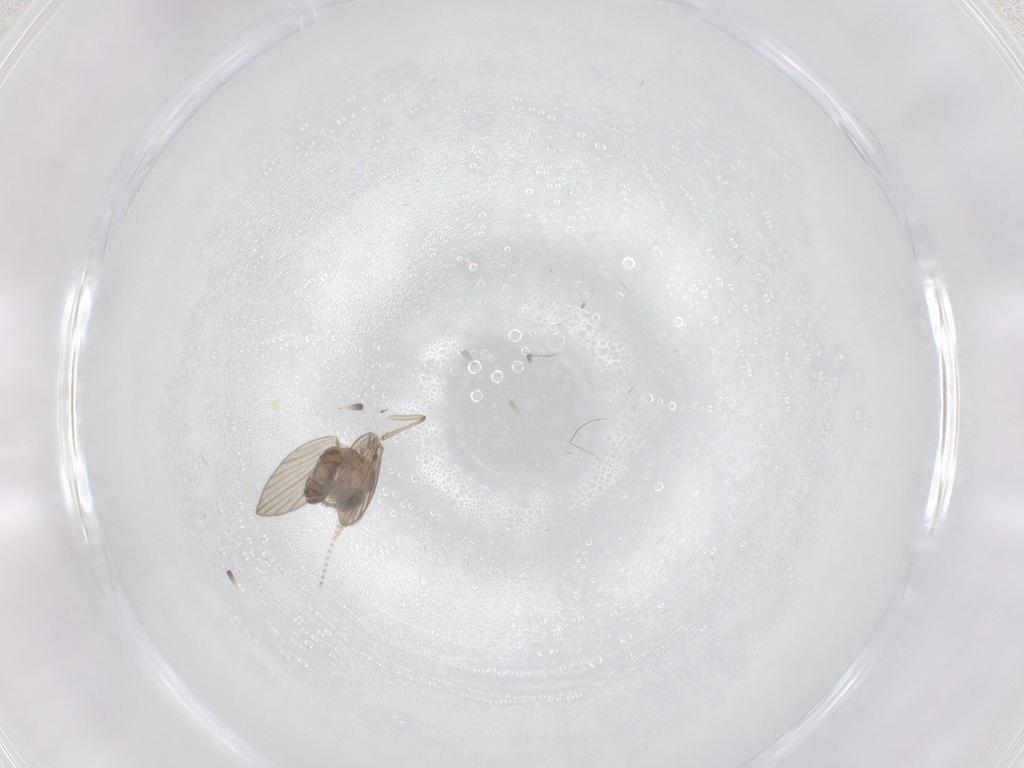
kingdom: Animalia
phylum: Arthropoda
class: Insecta
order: Diptera
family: Psychodidae
